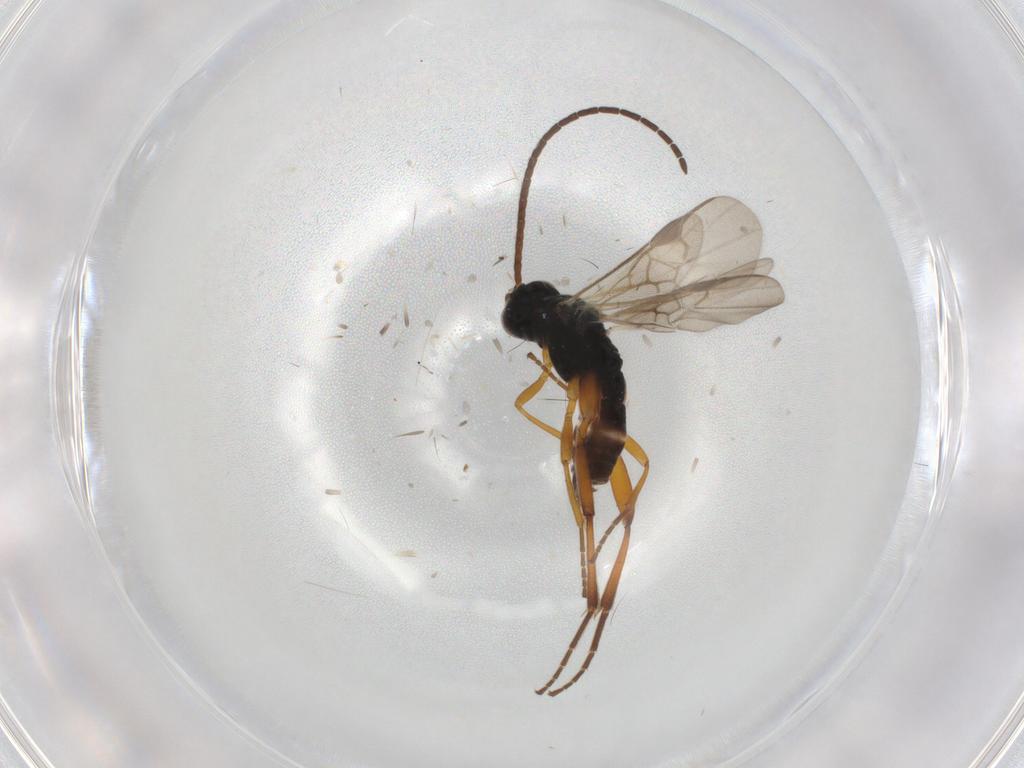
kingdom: Animalia
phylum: Arthropoda
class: Insecta
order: Hymenoptera
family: Braconidae
